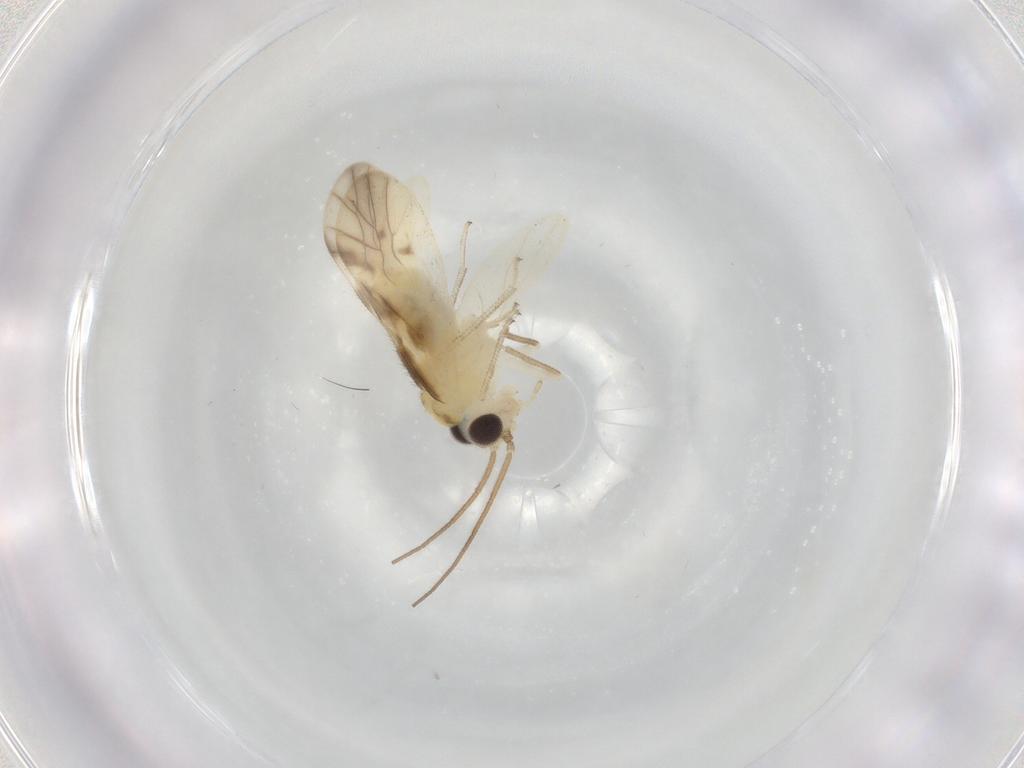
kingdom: Animalia
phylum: Arthropoda
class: Insecta
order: Psocodea
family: Caeciliusidae
